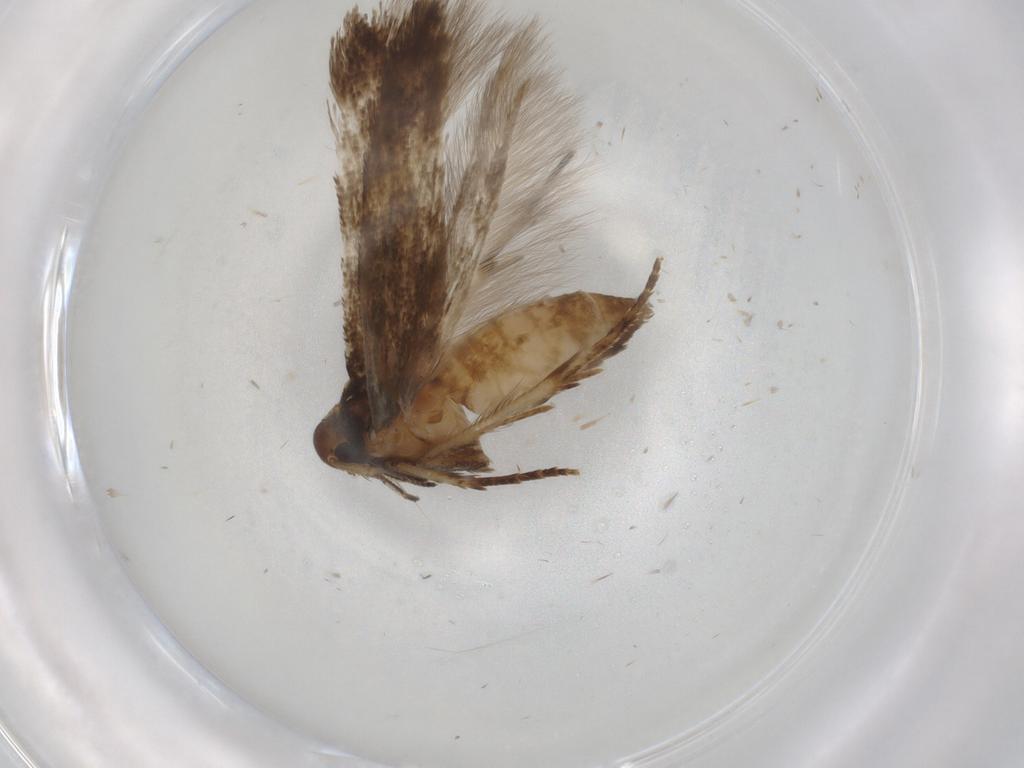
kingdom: Animalia
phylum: Arthropoda
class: Insecta
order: Lepidoptera
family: Cosmopterigidae
